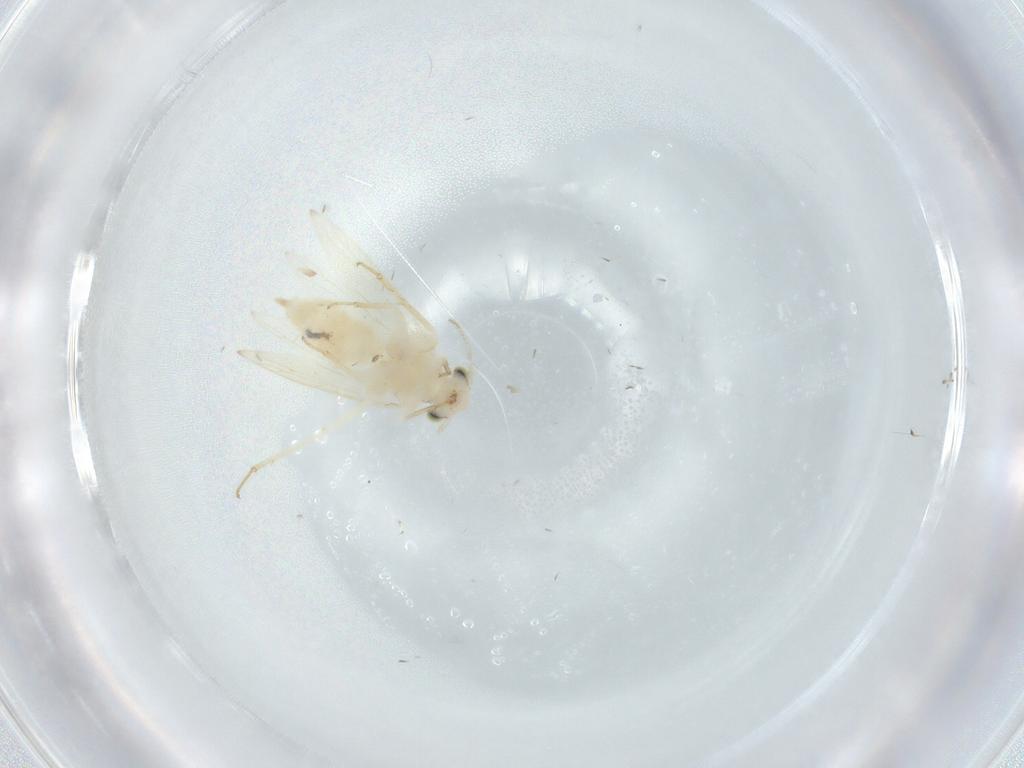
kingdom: Animalia
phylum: Arthropoda
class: Insecta
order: Psocodea
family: Lepidopsocidae
